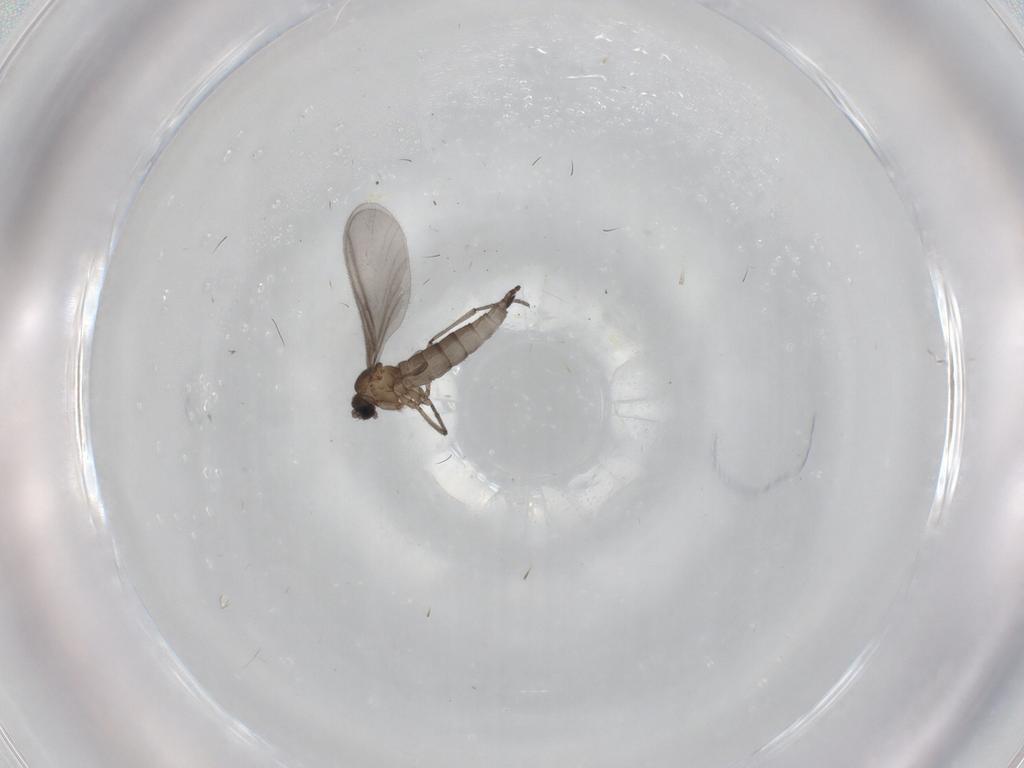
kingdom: Animalia
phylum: Arthropoda
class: Insecta
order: Diptera
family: Sciaridae
